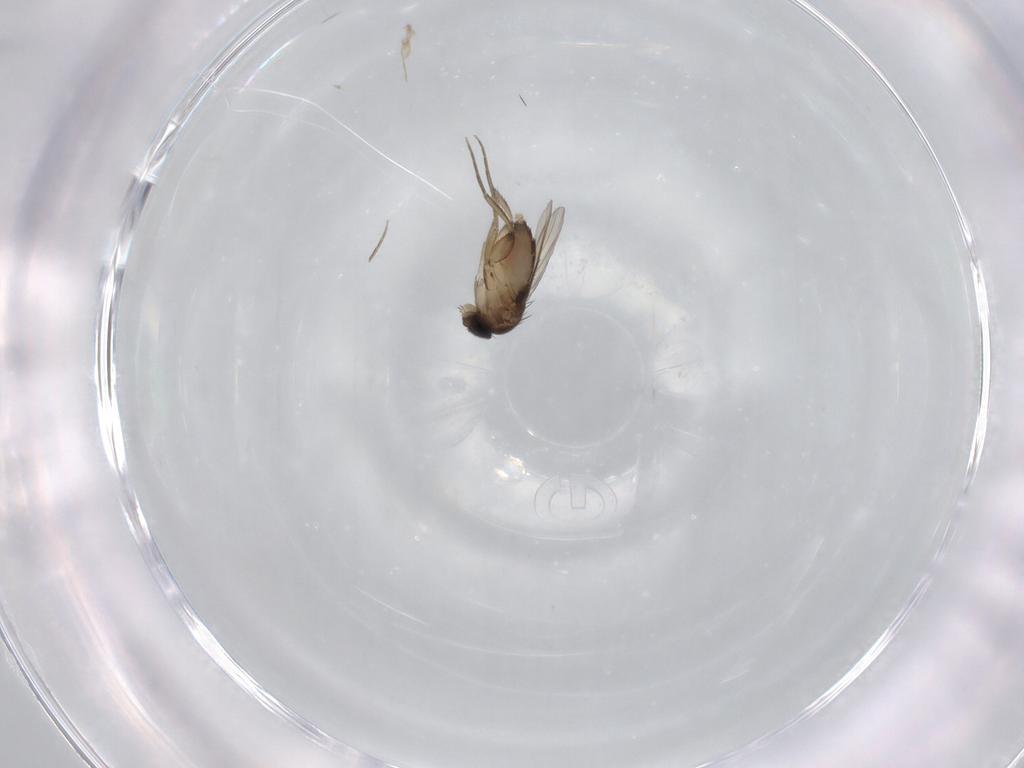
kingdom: Animalia
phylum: Arthropoda
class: Insecta
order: Diptera
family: Phoridae
